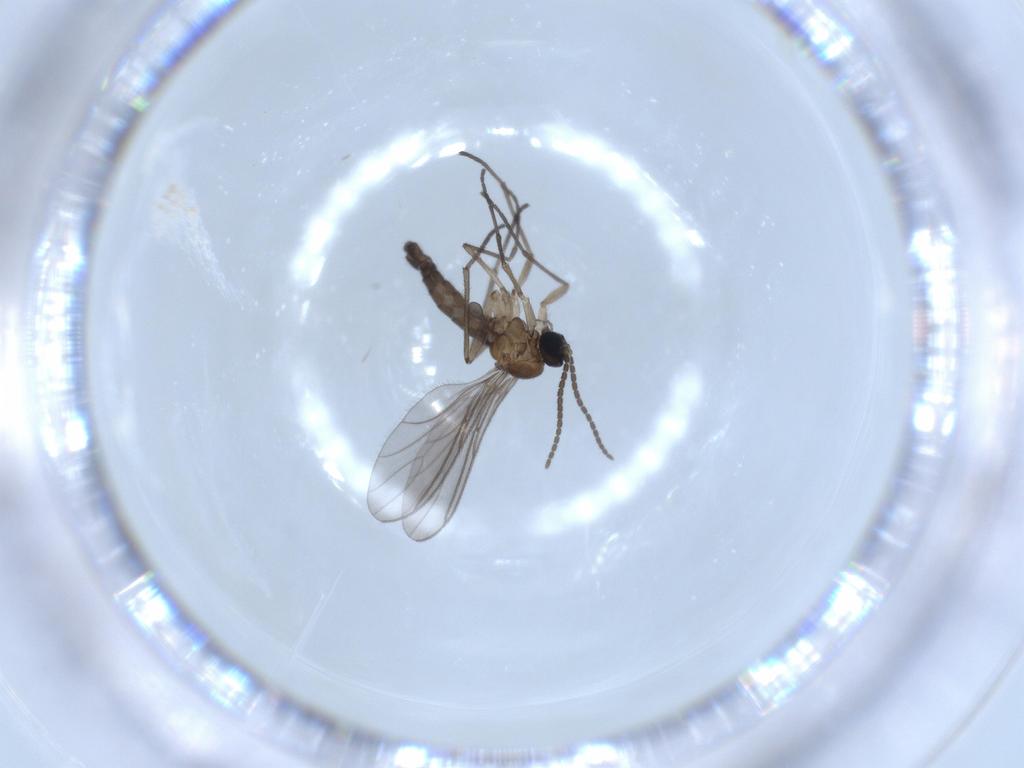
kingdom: Animalia
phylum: Arthropoda
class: Insecta
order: Diptera
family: Sciaridae
